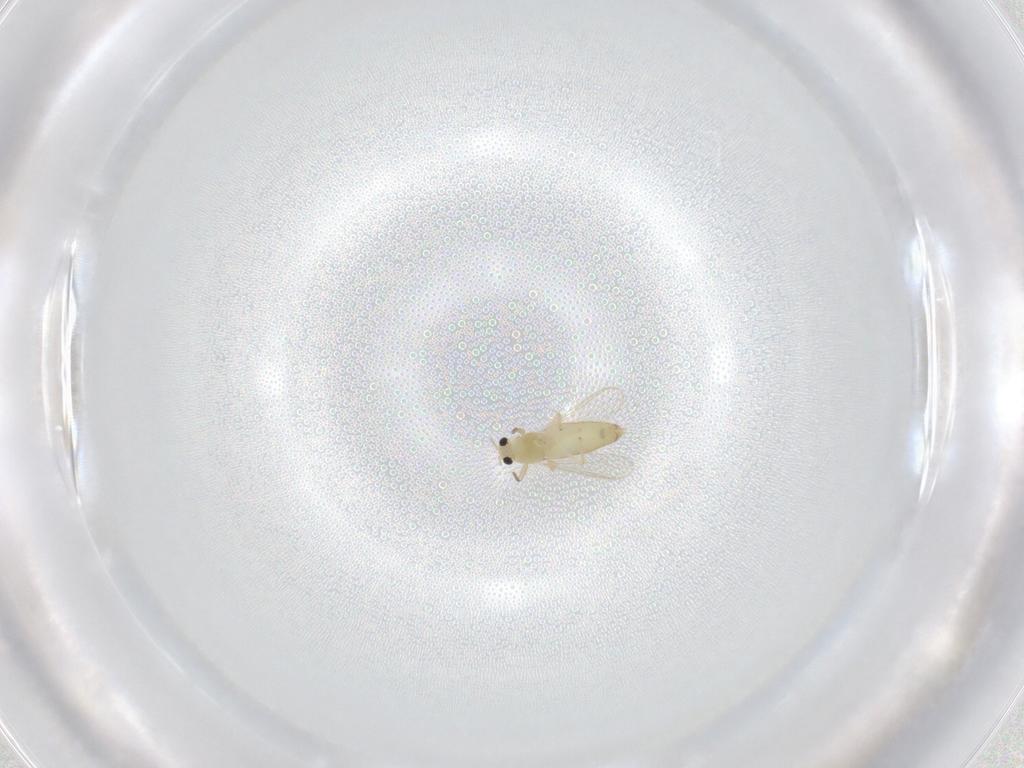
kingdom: Animalia
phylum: Arthropoda
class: Insecta
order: Diptera
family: Chironomidae
